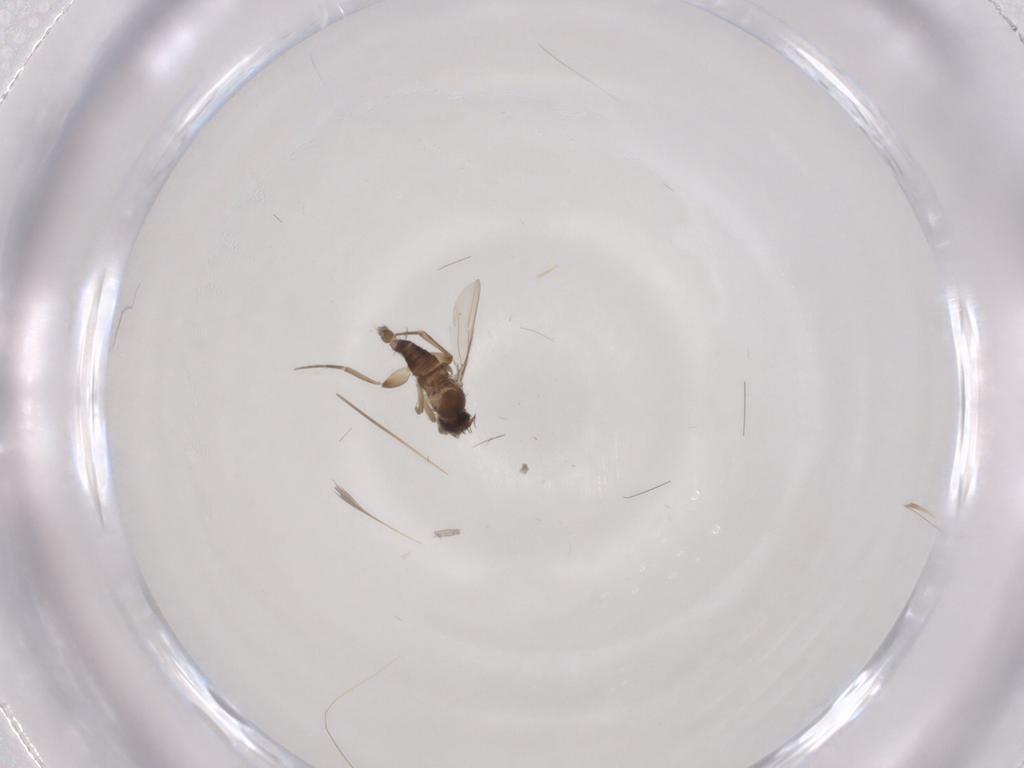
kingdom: Animalia
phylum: Arthropoda
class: Insecta
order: Diptera
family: Phoridae
